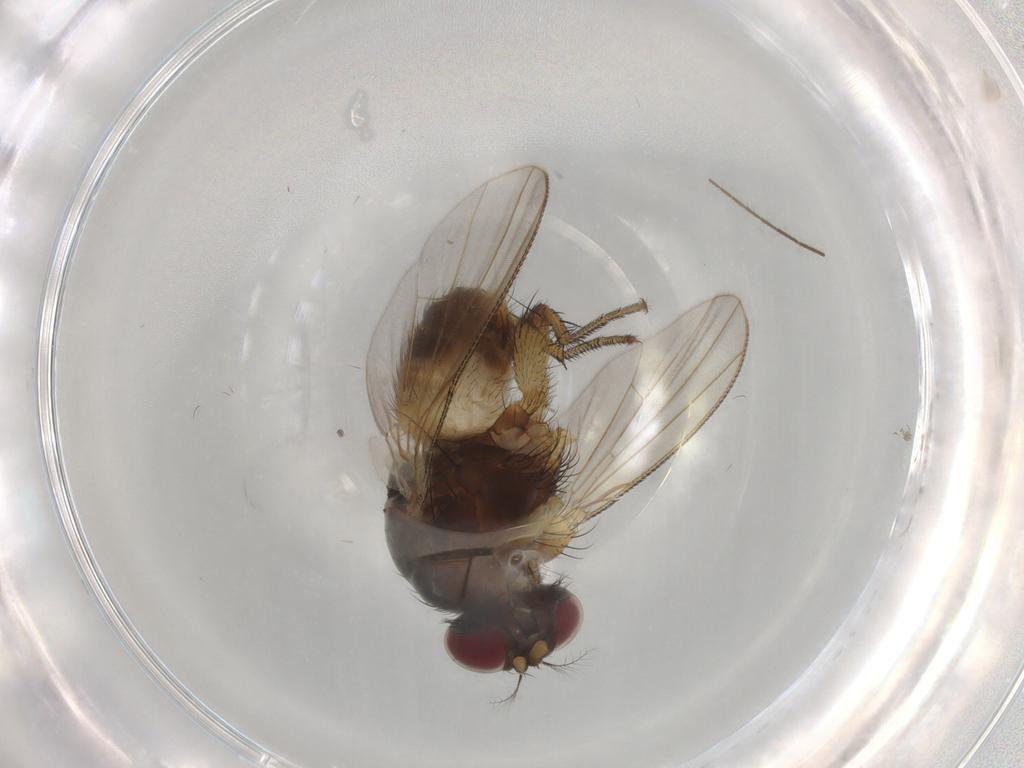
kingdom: Animalia
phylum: Arthropoda
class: Insecta
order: Diptera
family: Muscidae
